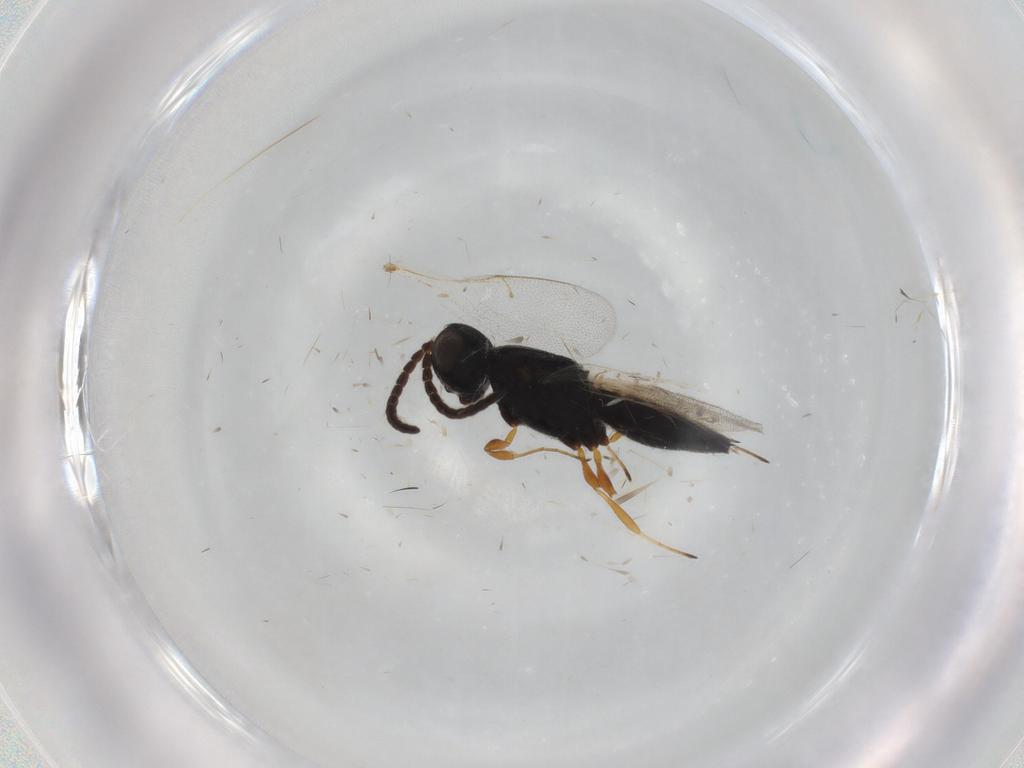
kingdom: Animalia
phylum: Arthropoda
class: Insecta
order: Hymenoptera
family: Scelionidae
